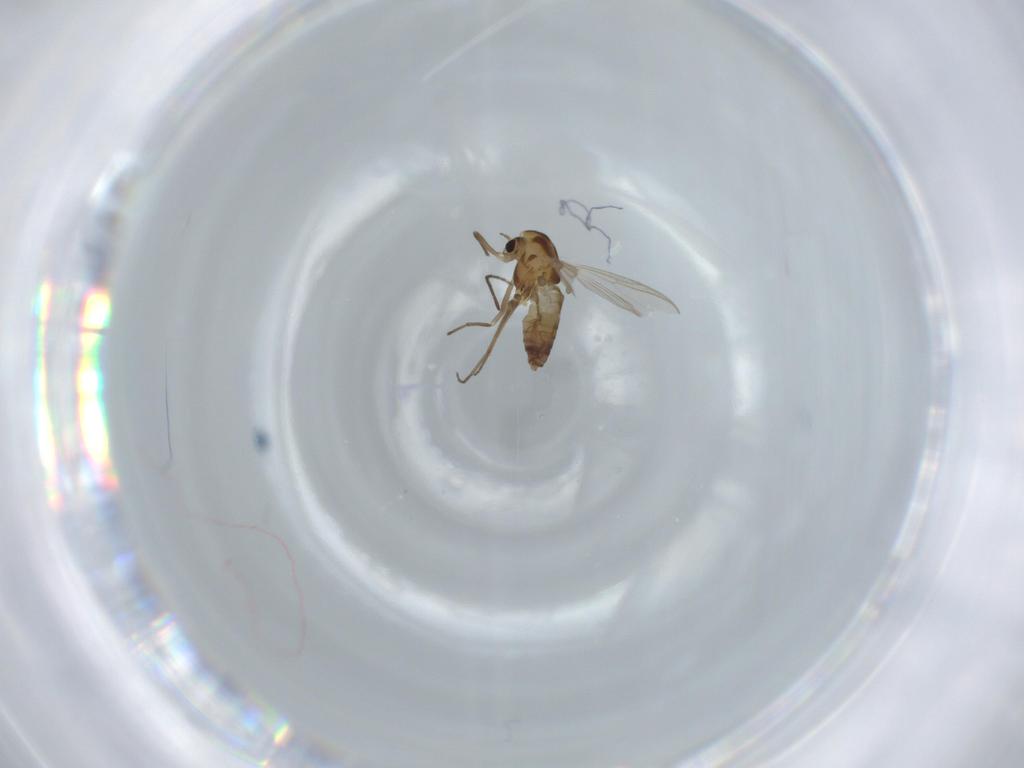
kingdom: Animalia
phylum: Arthropoda
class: Insecta
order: Diptera
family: Chironomidae
